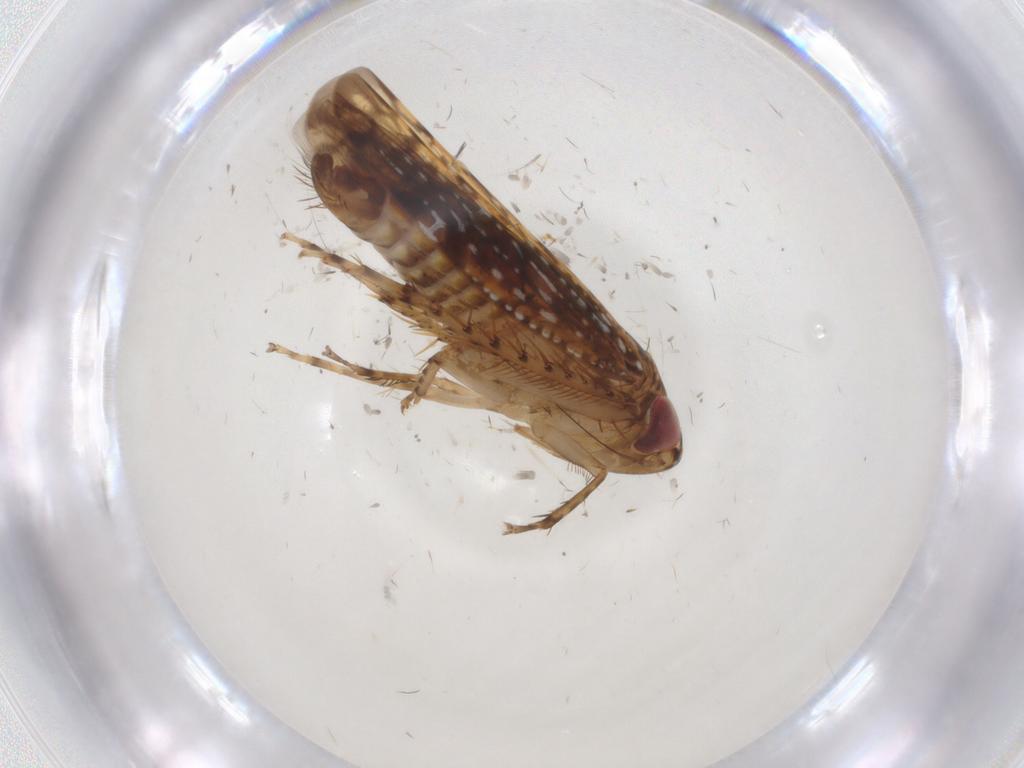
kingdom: Animalia
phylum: Arthropoda
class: Insecta
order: Hemiptera
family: Cicadellidae
